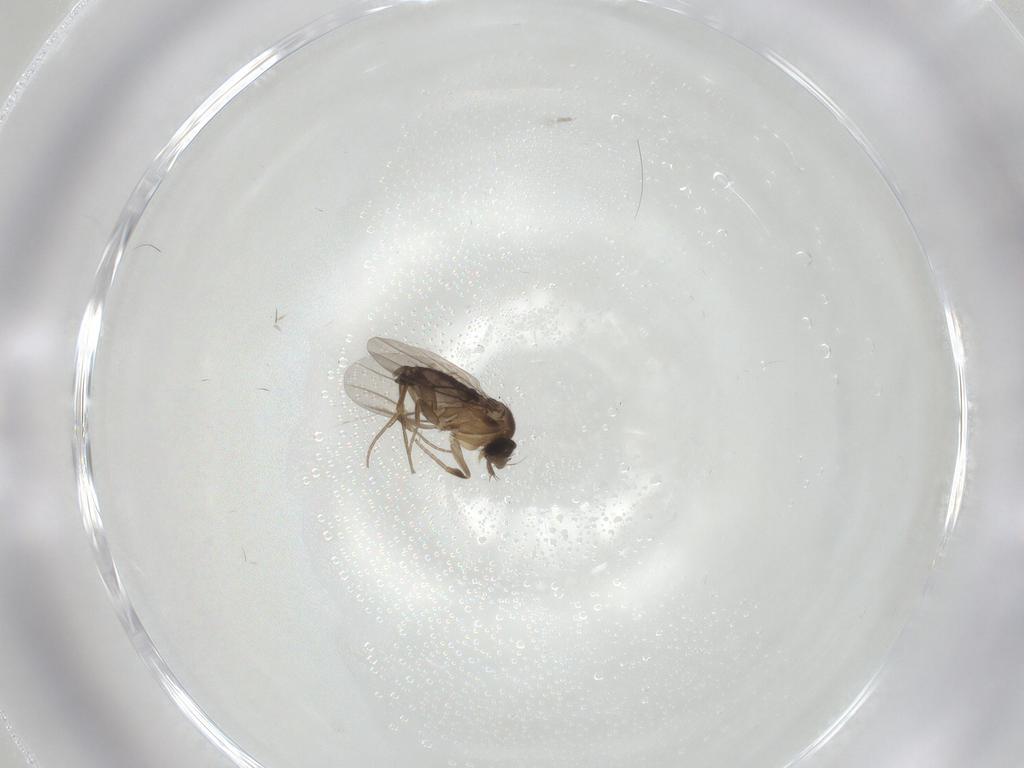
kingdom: Animalia
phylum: Arthropoda
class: Insecta
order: Diptera
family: Phoridae
